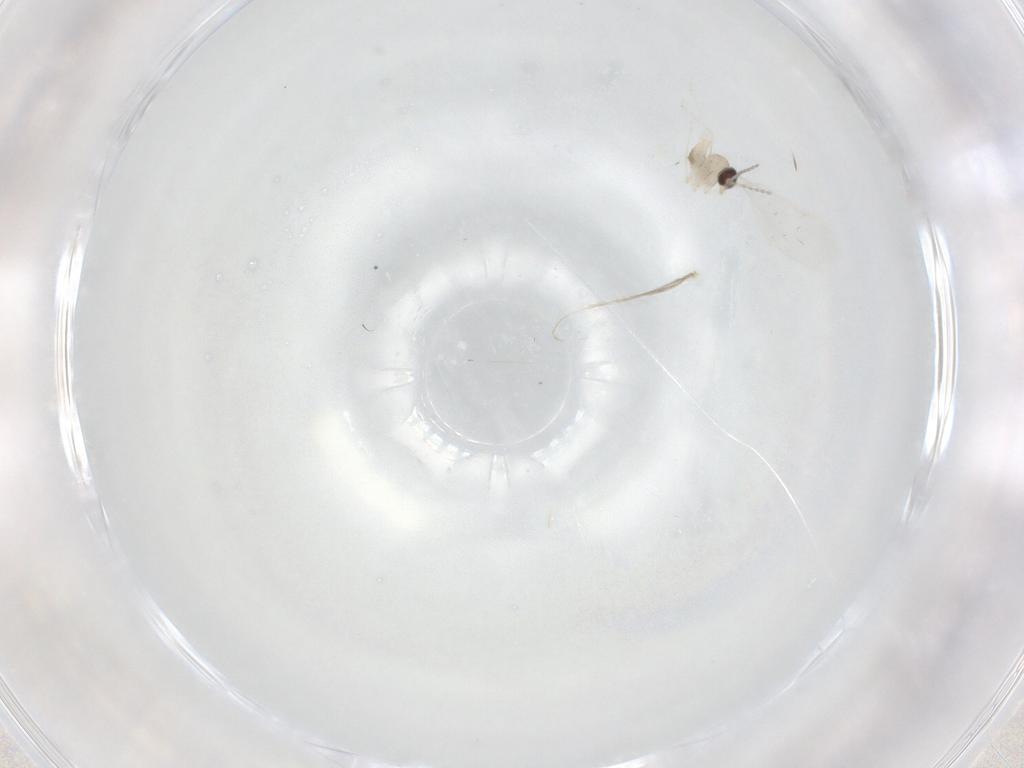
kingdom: Animalia
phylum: Arthropoda
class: Insecta
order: Diptera
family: Cecidomyiidae
